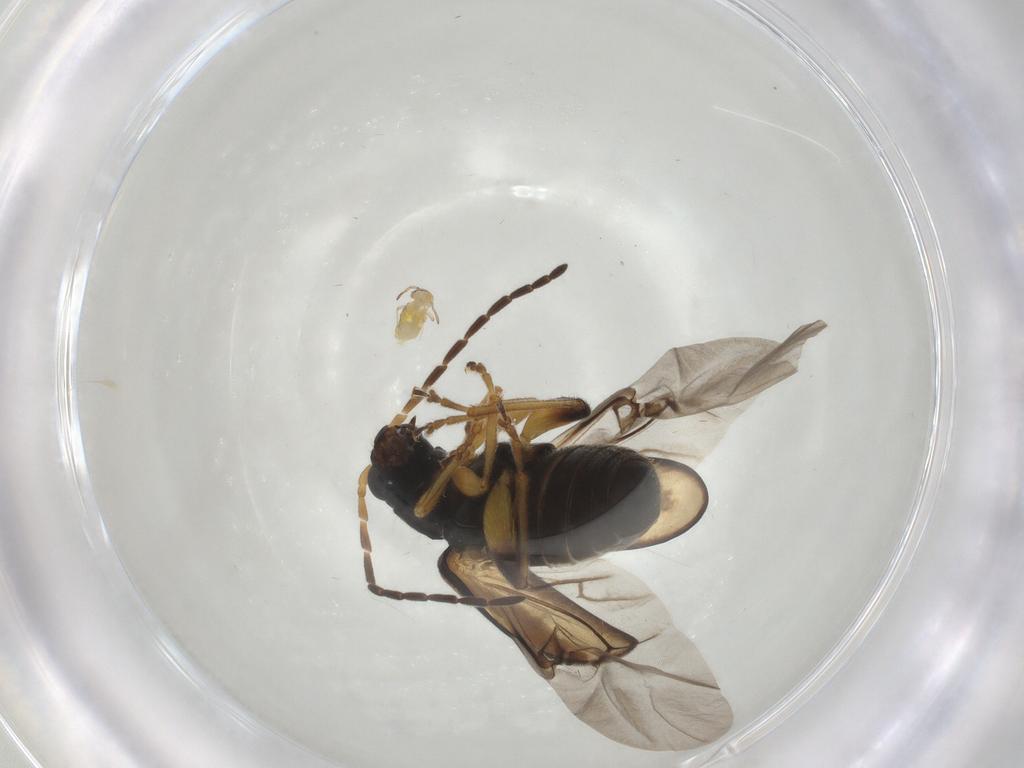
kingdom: Animalia
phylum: Arthropoda
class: Insecta
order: Coleoptera
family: Chrysomelidae
